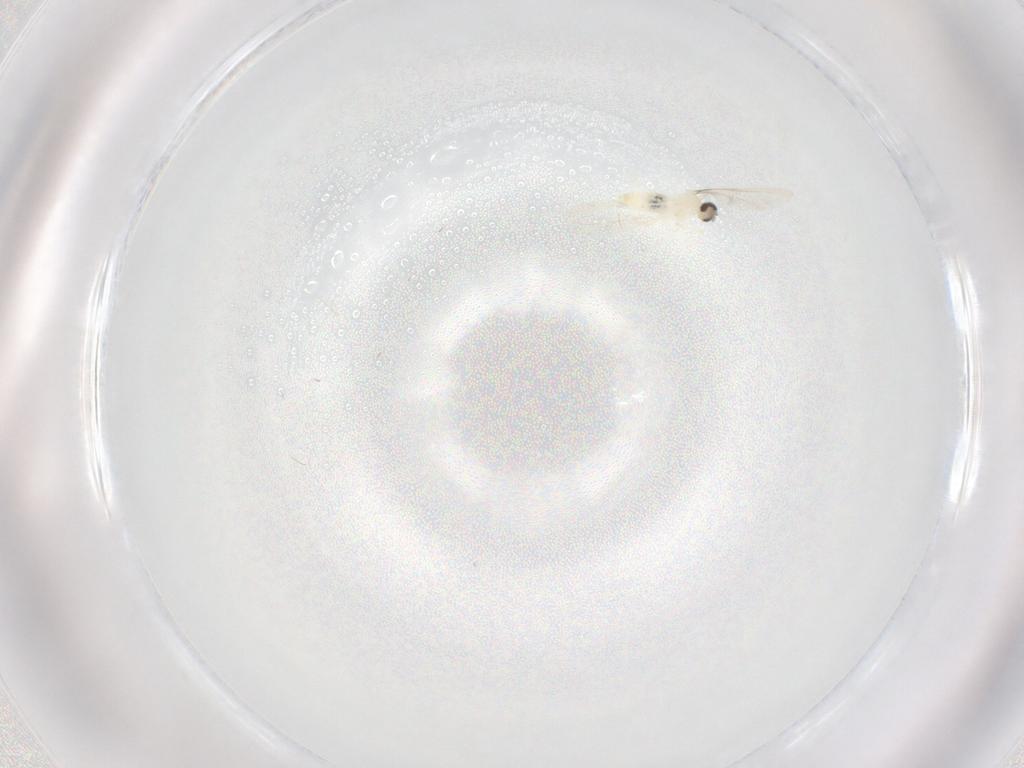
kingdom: Animalia
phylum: Arthropoda
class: Insecta
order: Diptera
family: Cecidomyiidae
